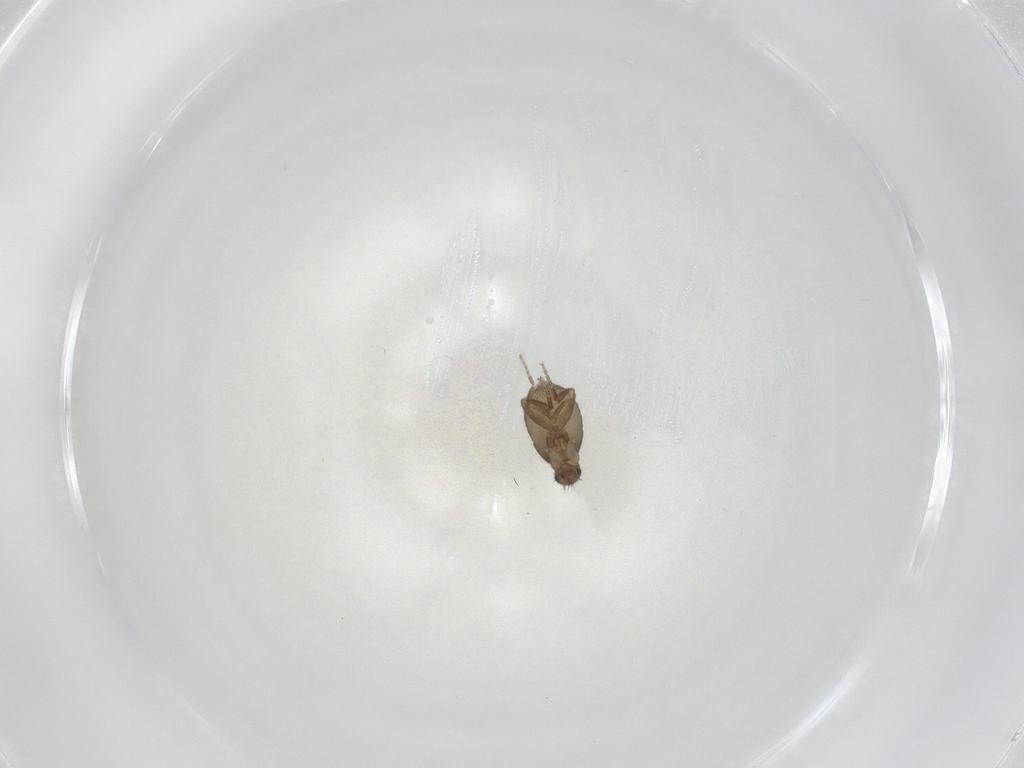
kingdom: Animalia
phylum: Arthropoda
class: Insecta
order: Diptera
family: Phoridae
